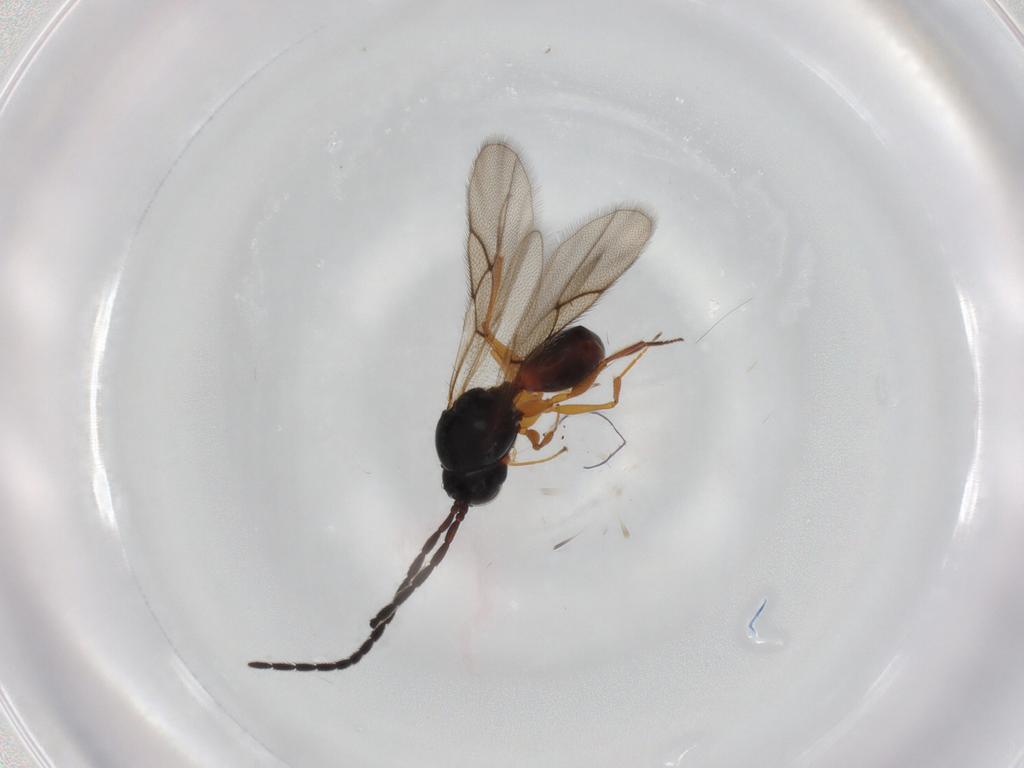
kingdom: Animalia
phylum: Arthropoda
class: Insecta
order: Hymenoptera
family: Figitidae
